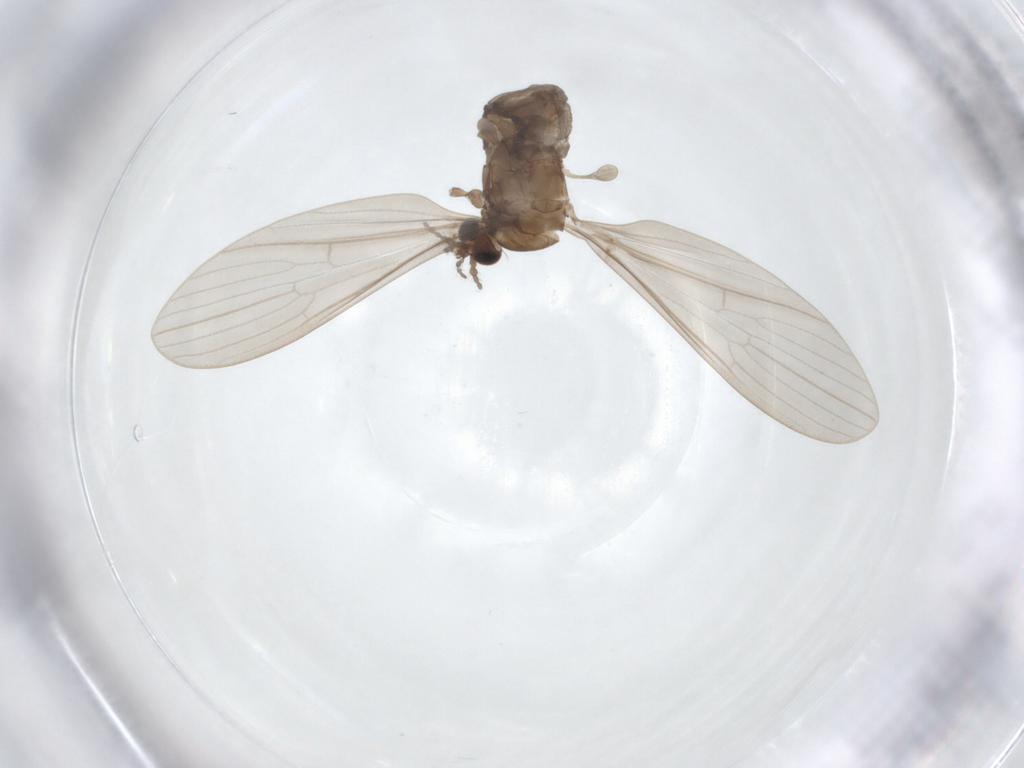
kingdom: Animalia
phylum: Arthropoda
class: Insecta
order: Diptera
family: Limoniidae
